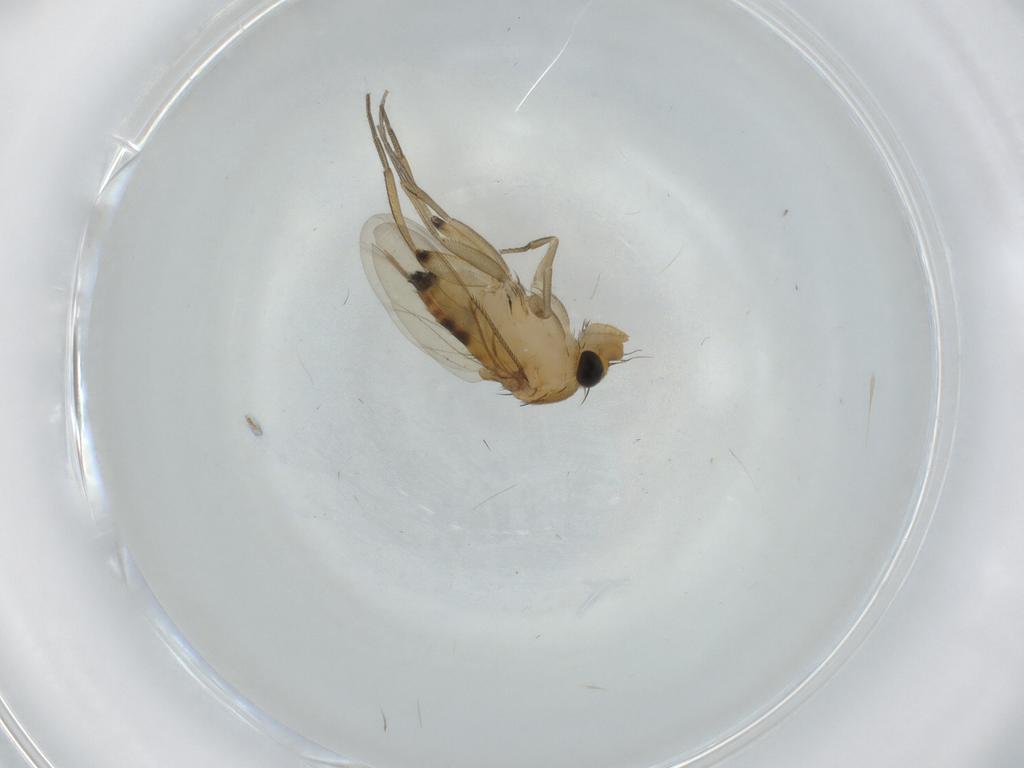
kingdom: Animalia
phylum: Arthropoda
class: Insecta
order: Diptera
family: Phoridae
